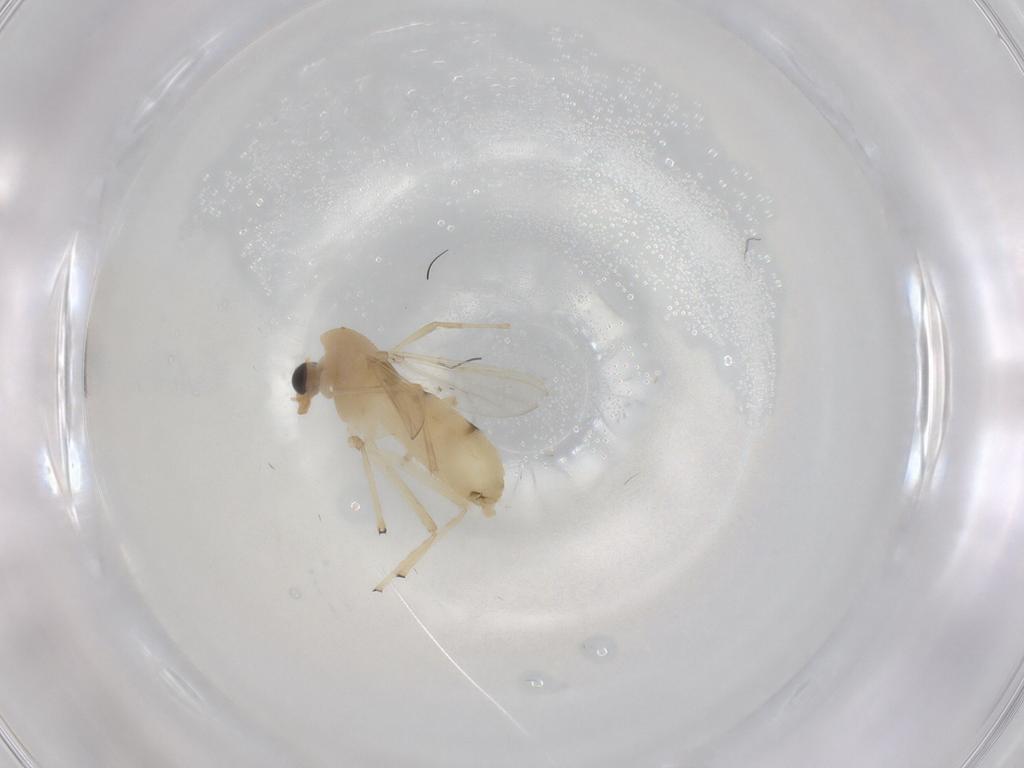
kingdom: Animalia
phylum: Arthropoda
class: Insecta
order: Diptera
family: Chironomidae
